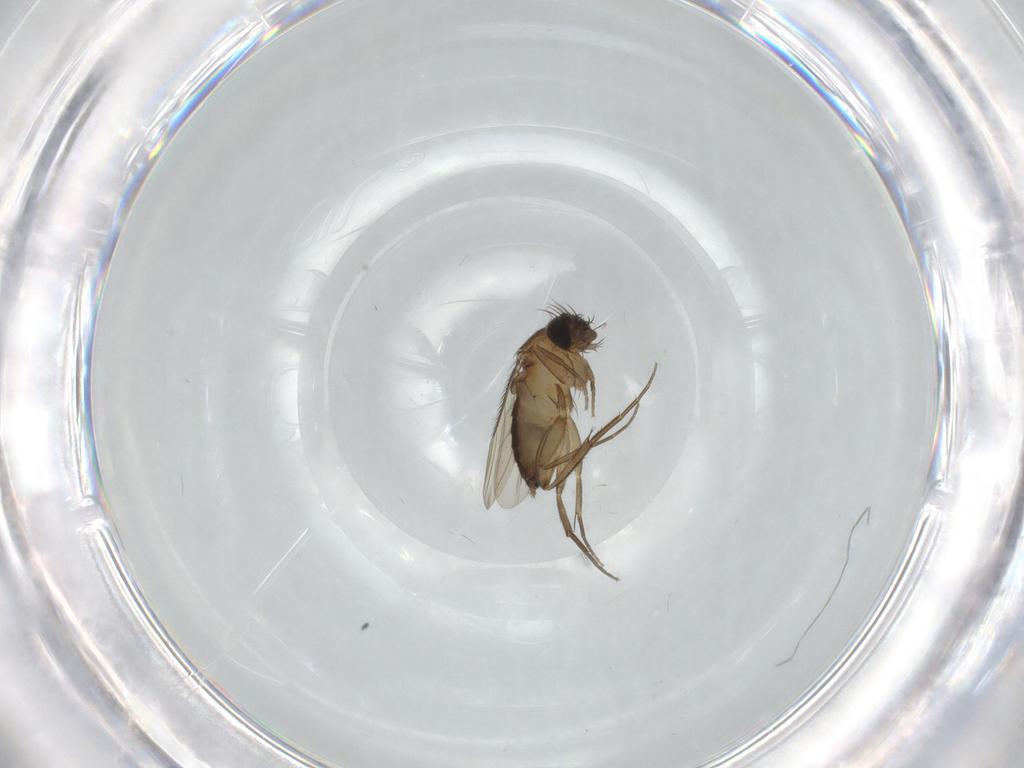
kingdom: Animalia
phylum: Arthropoda
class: Insecta
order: Diptera
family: Phoridae
